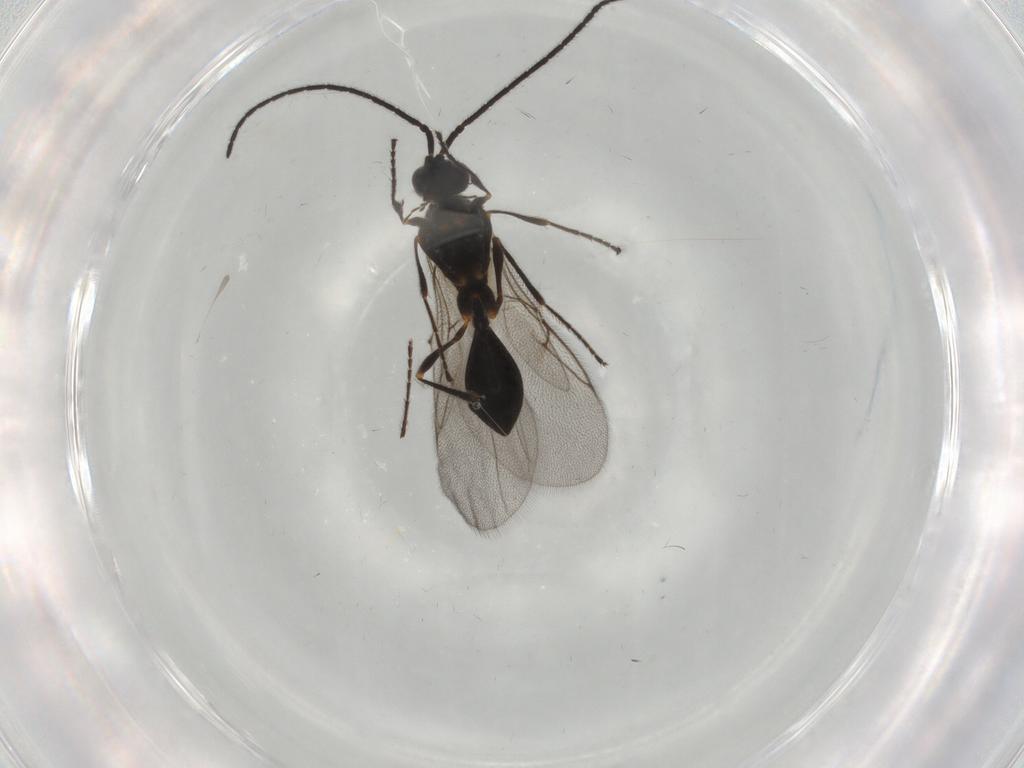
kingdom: Animalia
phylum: Arthropoda
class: Insecta
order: Hymenoptera
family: Diapriidae
